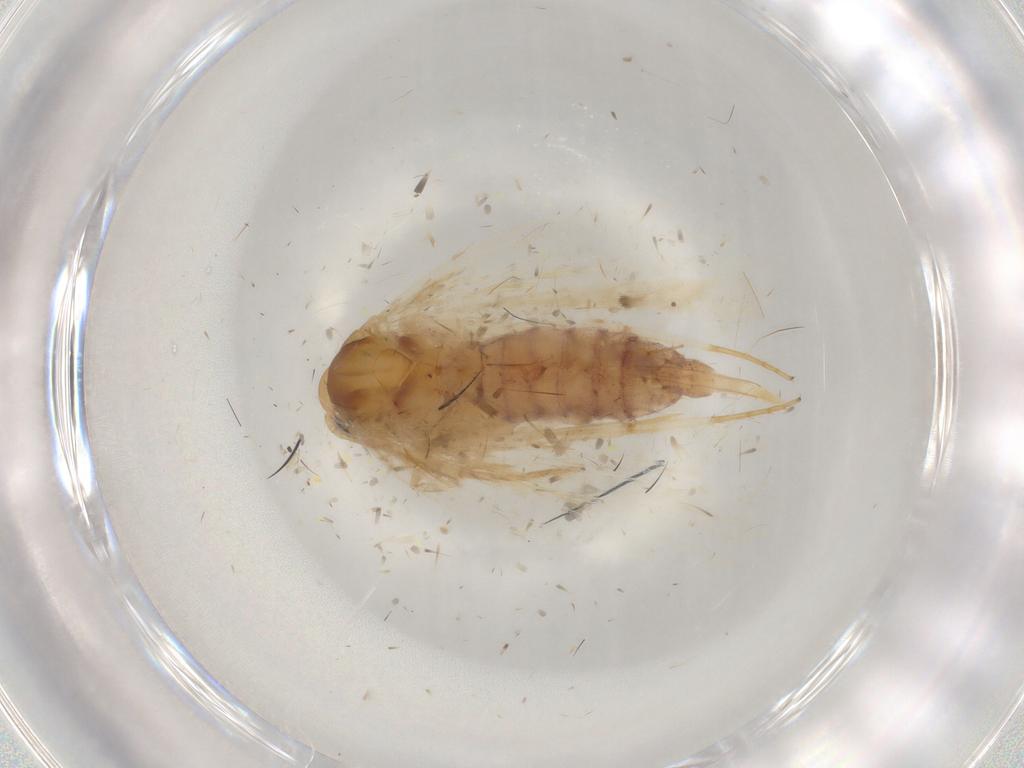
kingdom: Animalia
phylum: Arthropoda
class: Insecta
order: Lepidoptera
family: Depressariidae
